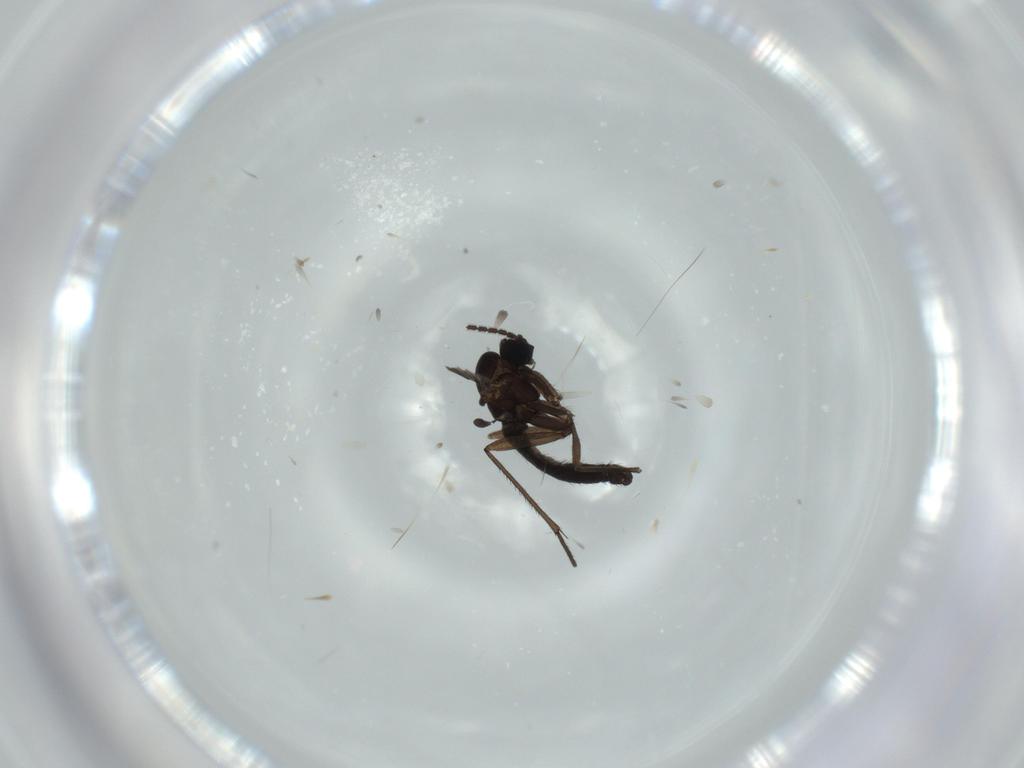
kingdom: Animalia
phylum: Arthropoda
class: Insecta
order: Diptera
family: Sciaridae
